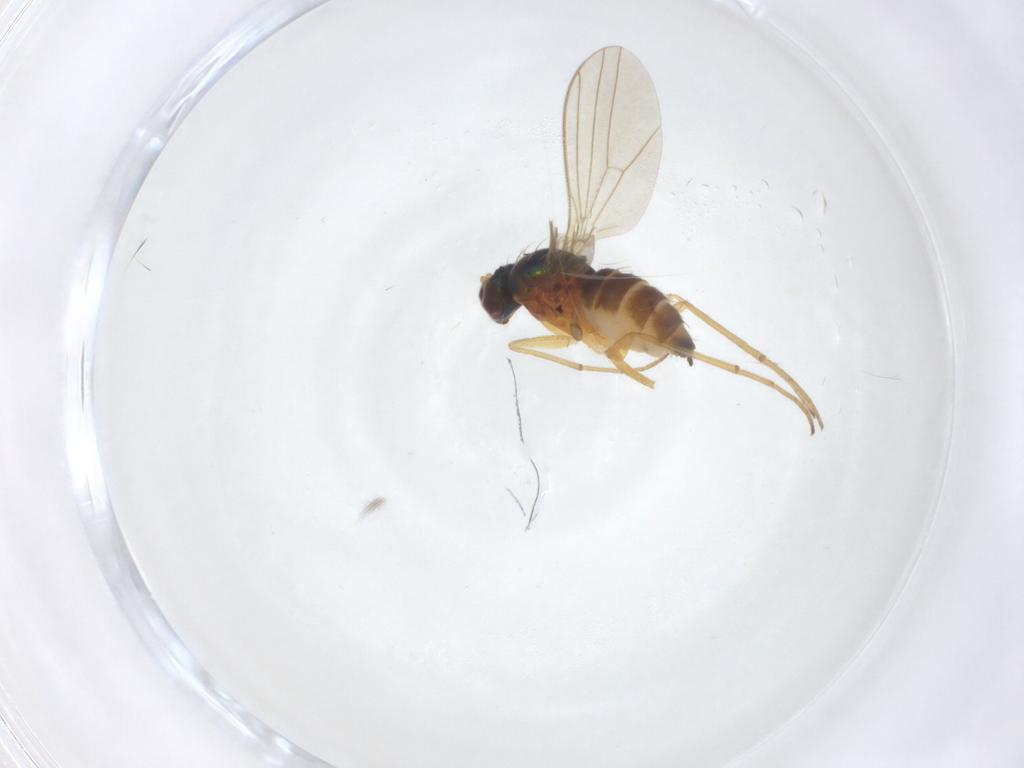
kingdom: Animalia
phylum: Arthropoda
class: Insecta
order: Diptera
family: Dolichopodidae
